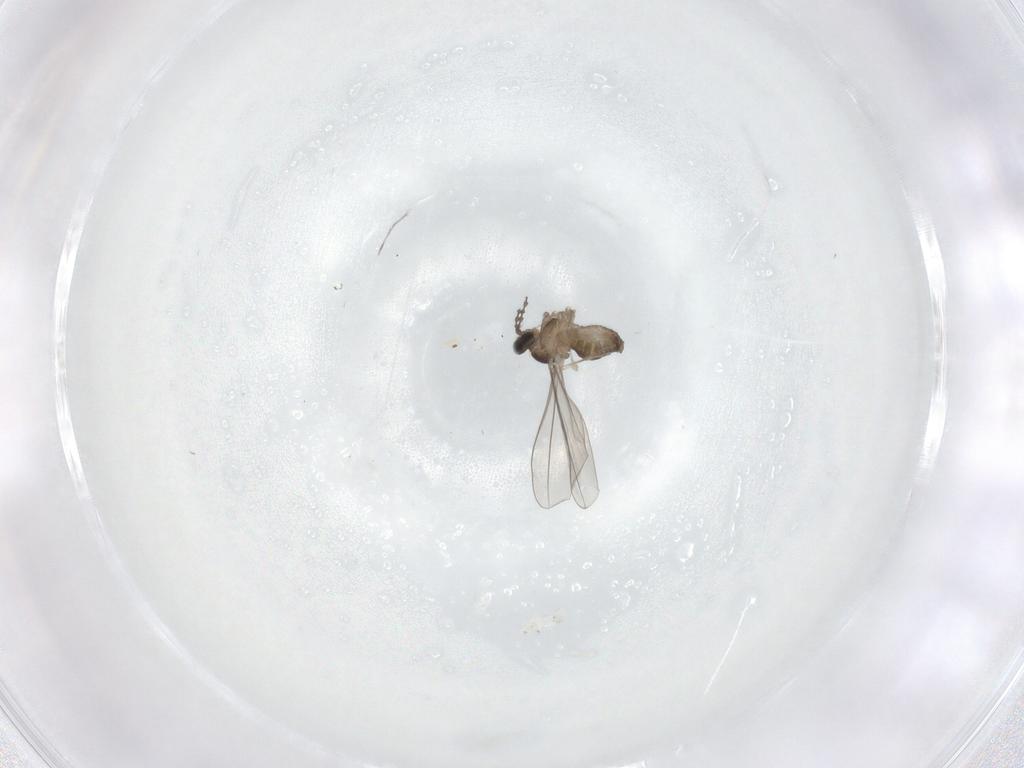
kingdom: Animalia
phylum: Arthropoda
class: Insecta
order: Diptera
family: Cecidomyiidae
